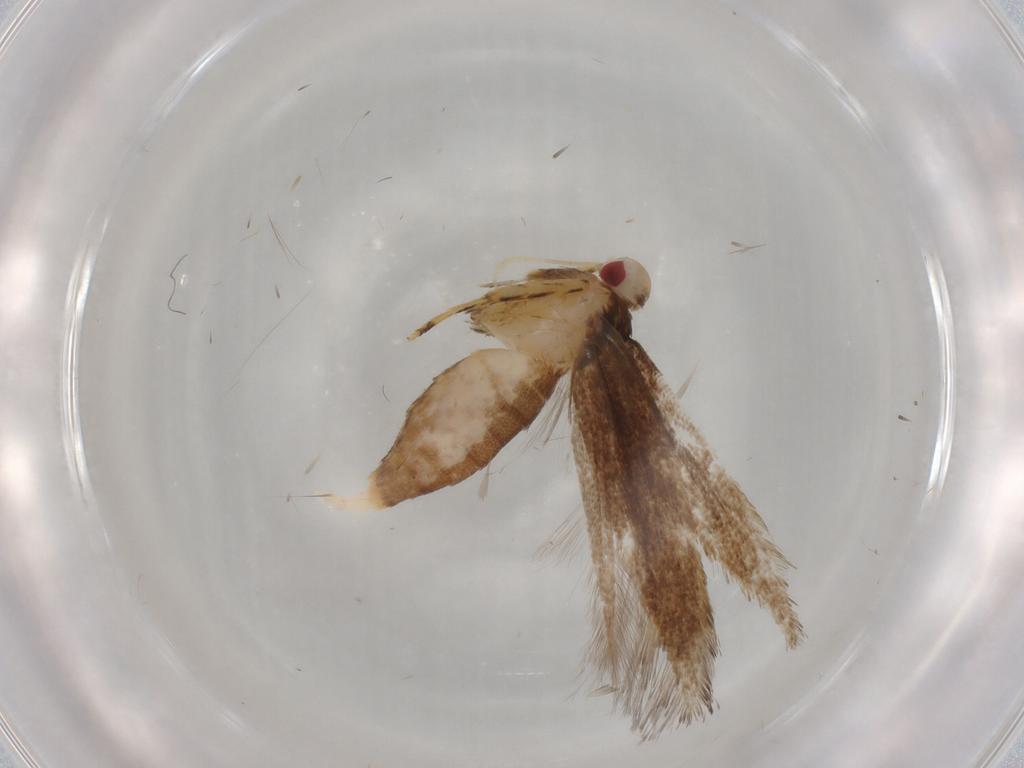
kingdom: Animalia
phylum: Arthropoda
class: Insecta
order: Lepidoptera
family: Cosmopterigidae
